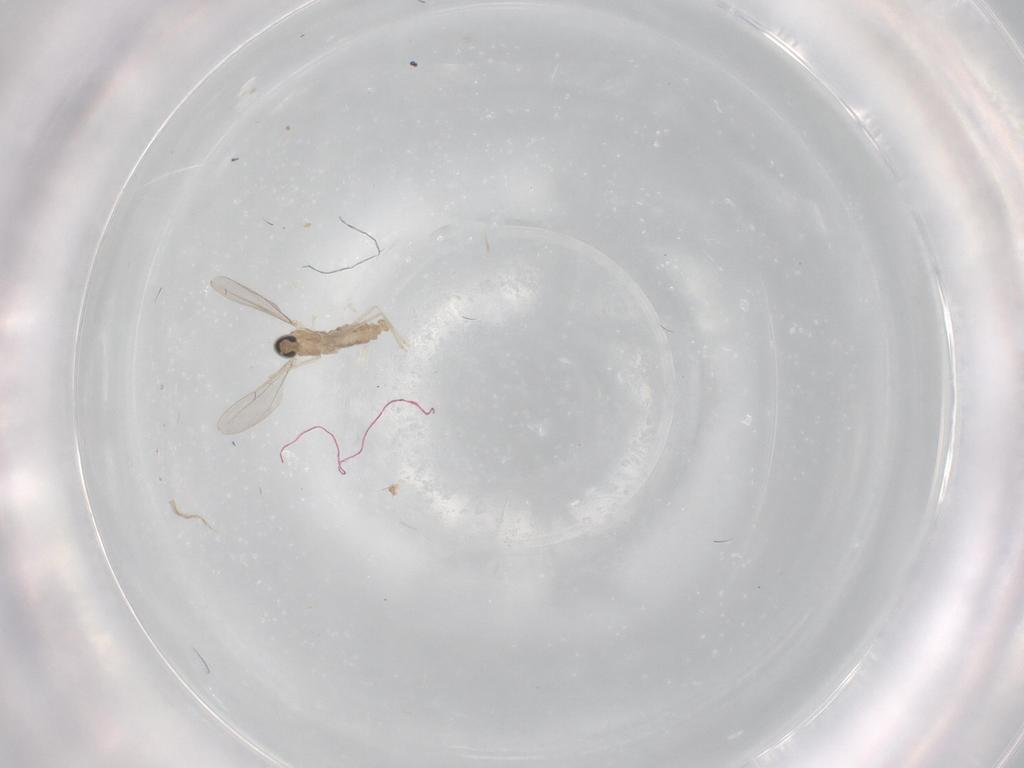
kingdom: Animalia
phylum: Arthropoda
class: Insecta
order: Diptera
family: Cecidomyiidae
